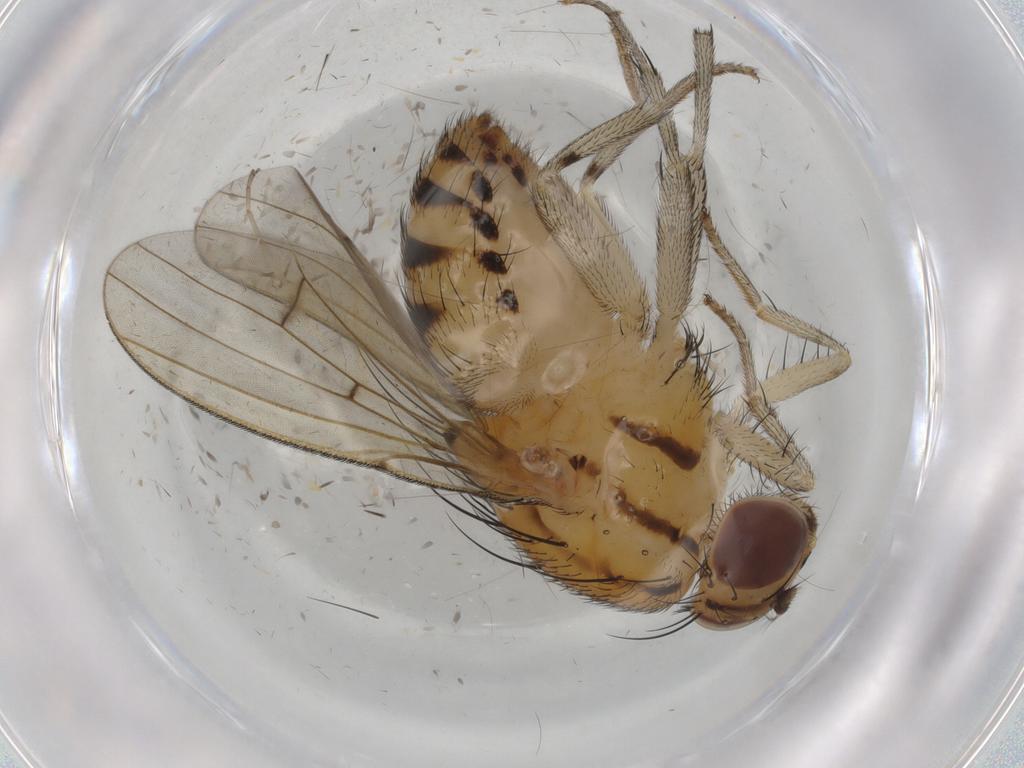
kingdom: Animalia
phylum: Arthropoda
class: Insecta
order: Diptera
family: Lauxaniidae
